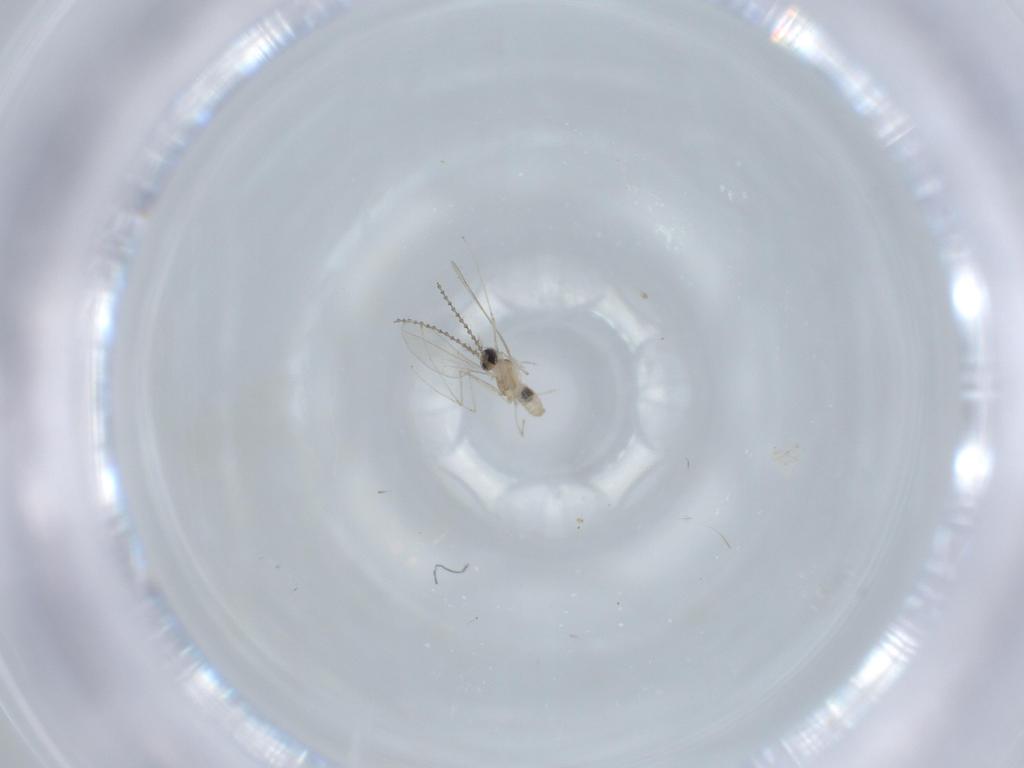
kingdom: Animalia
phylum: Arthropoda
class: Insecta
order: Diptera
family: Cecidomyiidae
